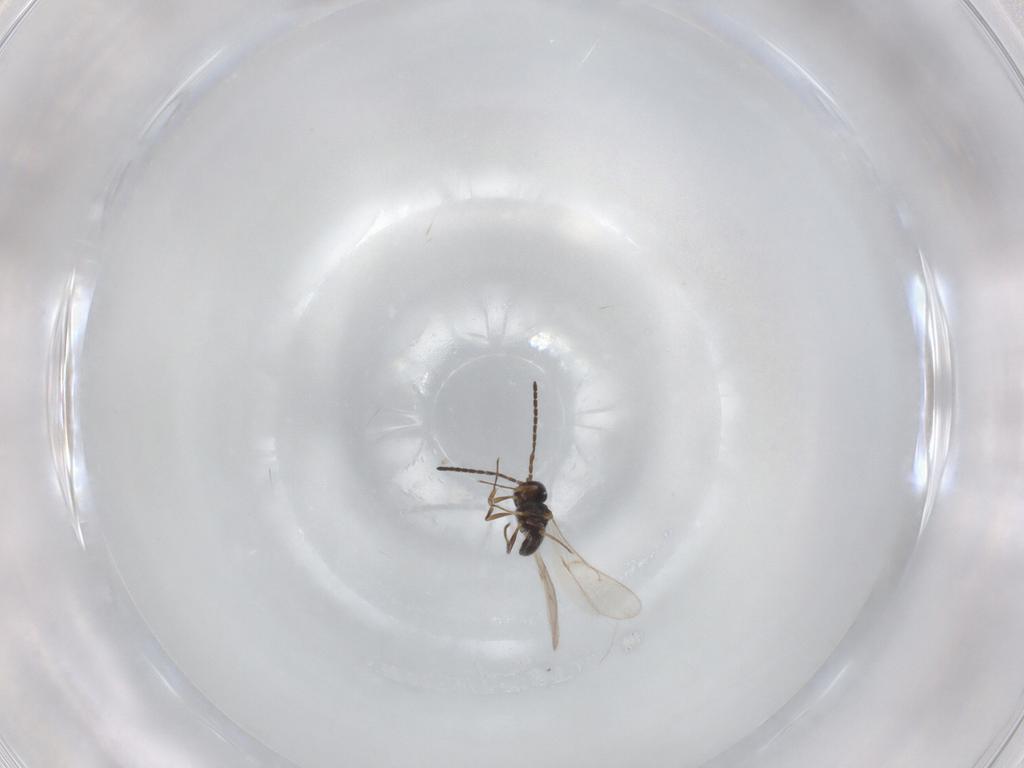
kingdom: Animalia
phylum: Arthropoda
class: Insecta
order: Hymenoptera
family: Scelionidae
